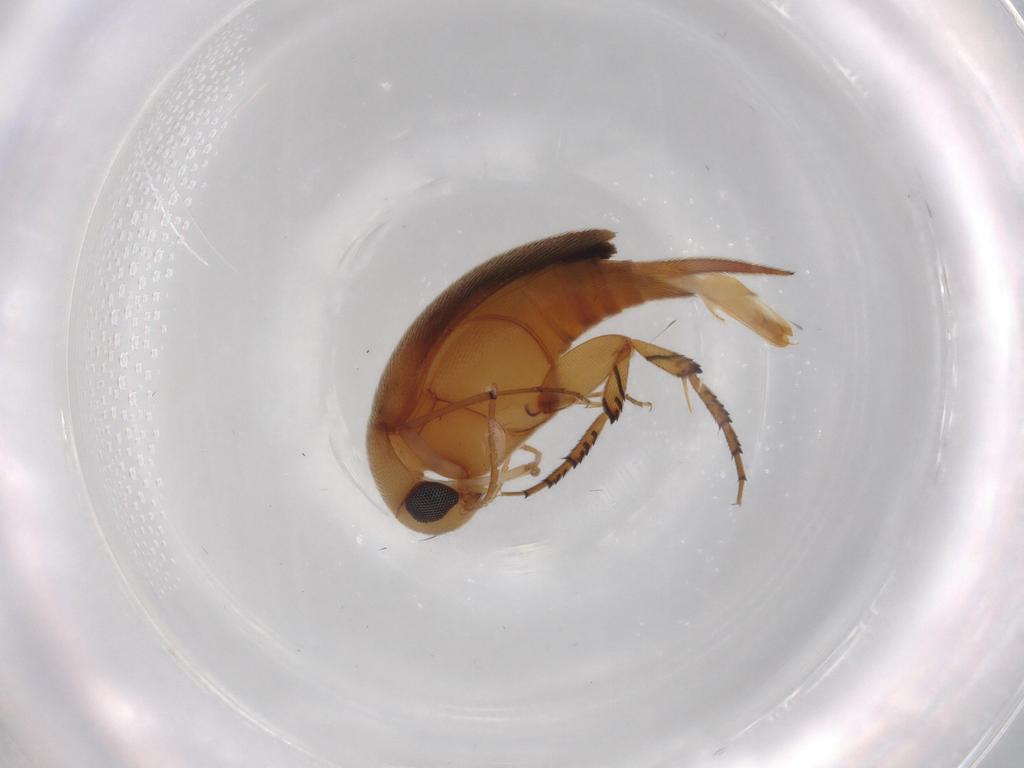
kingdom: Animalia
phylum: Arthropoda
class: Insecta
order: Coleoptera
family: Mordellidae
